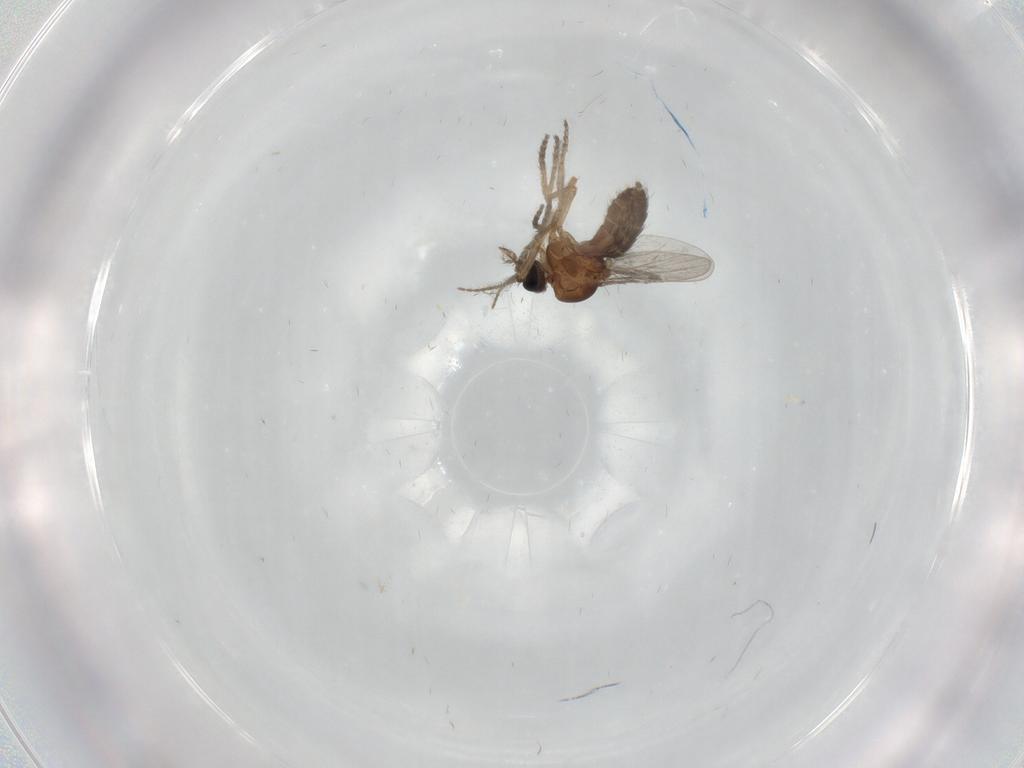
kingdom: Animalia
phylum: Arthropoda
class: Insecta
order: Diptera
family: Ceratopogonidae
